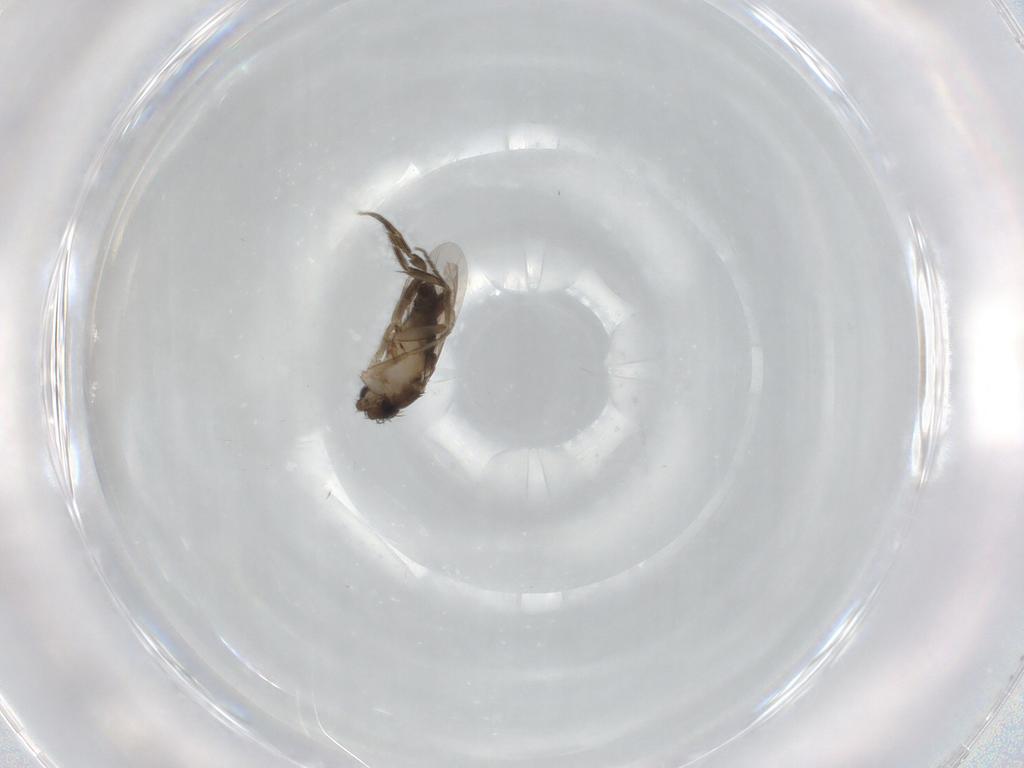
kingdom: Animalia
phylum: Arthropoda
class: Insecta
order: Diptera
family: Phoridae
